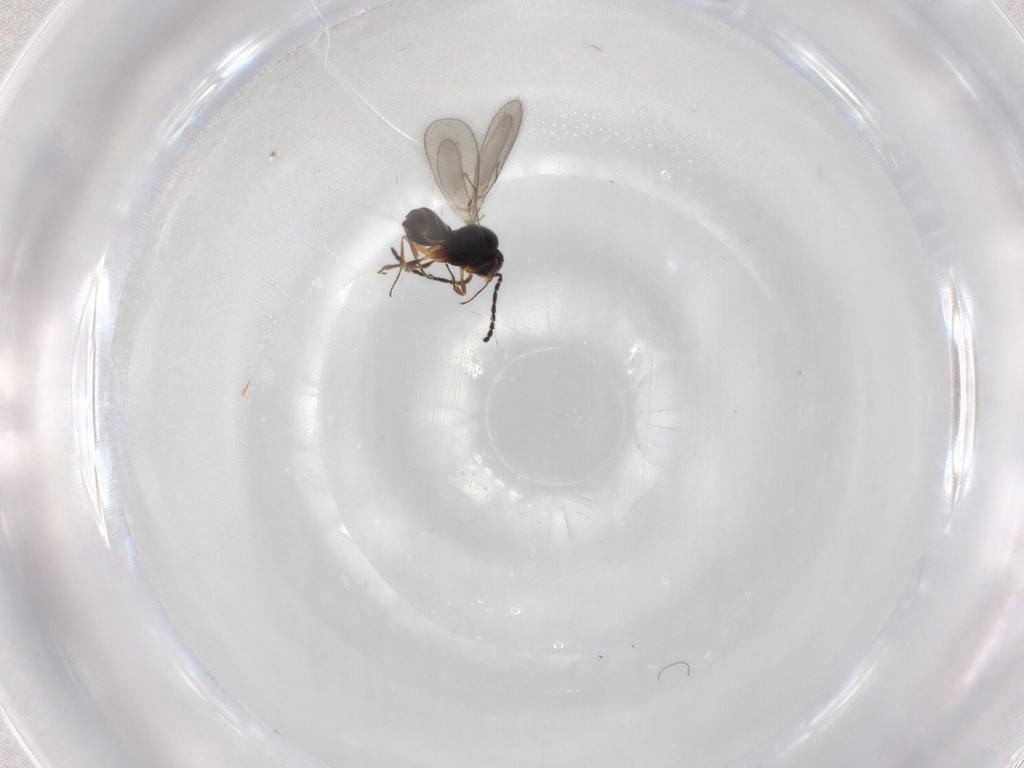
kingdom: Animalia
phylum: Arthropoda
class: Insecta
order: Hymenoptera
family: Scelionidae
